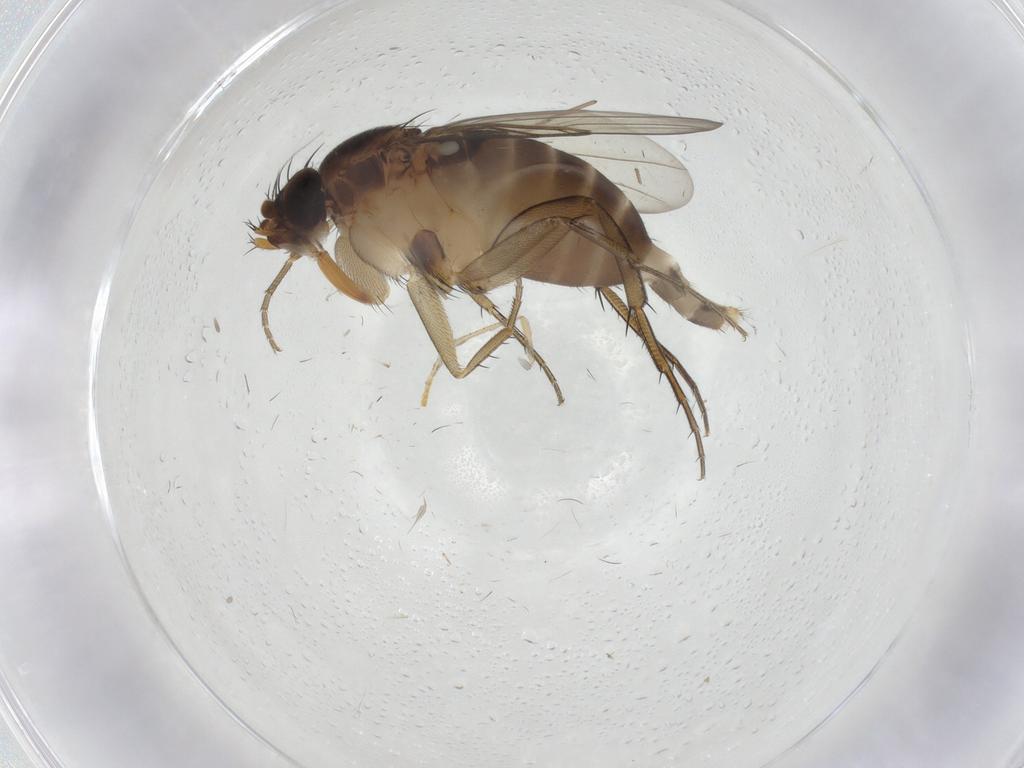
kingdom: Animalia
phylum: Arthropoda
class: Insecta
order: Diptera
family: Phoridae
